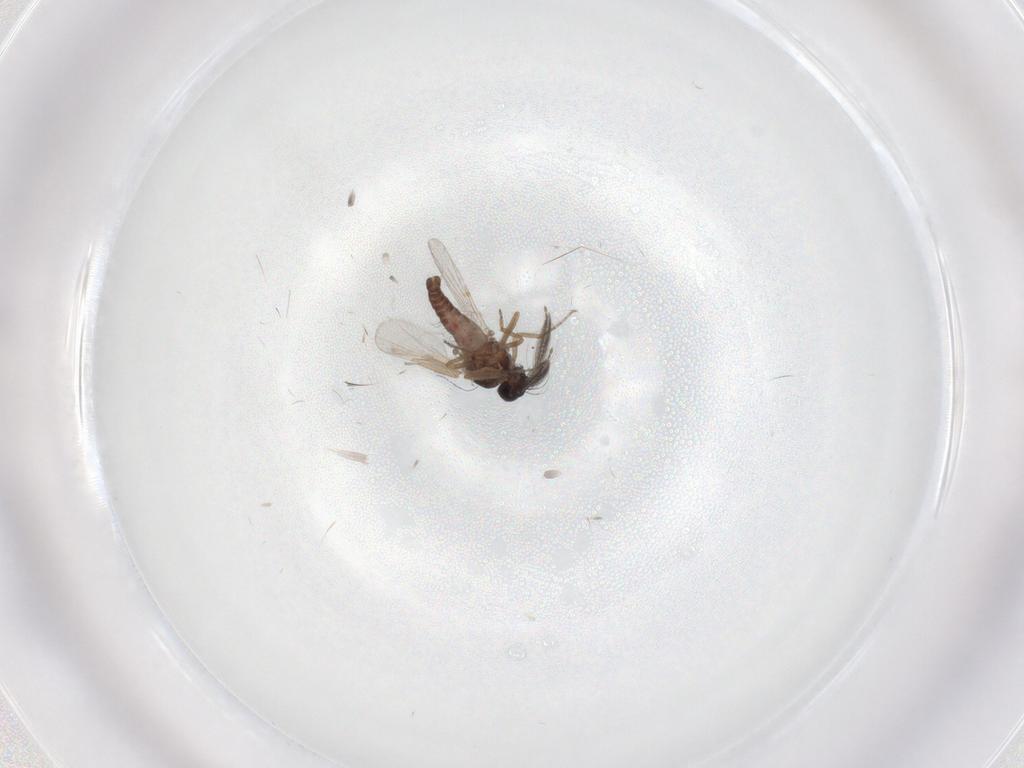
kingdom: Animalia
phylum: Arthropoda
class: Insecta
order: Diptera
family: Ceratopogonidae
